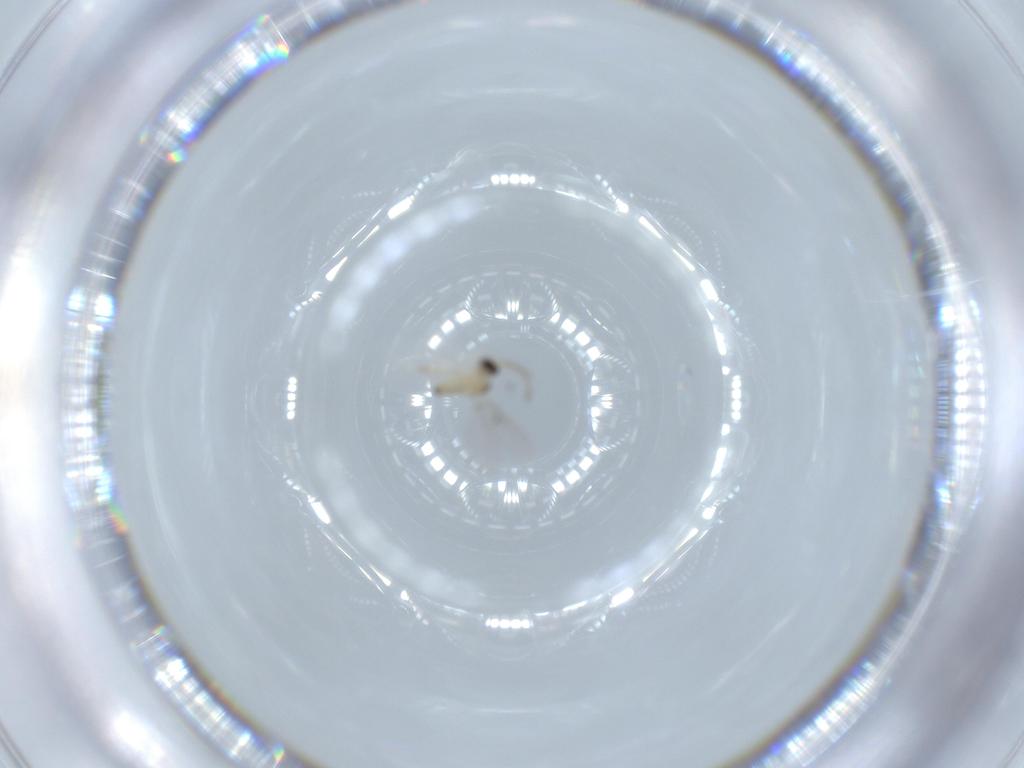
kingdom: Animalia
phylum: Arthropoda
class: Insecta
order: Diptera
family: Cecidomyiidae
